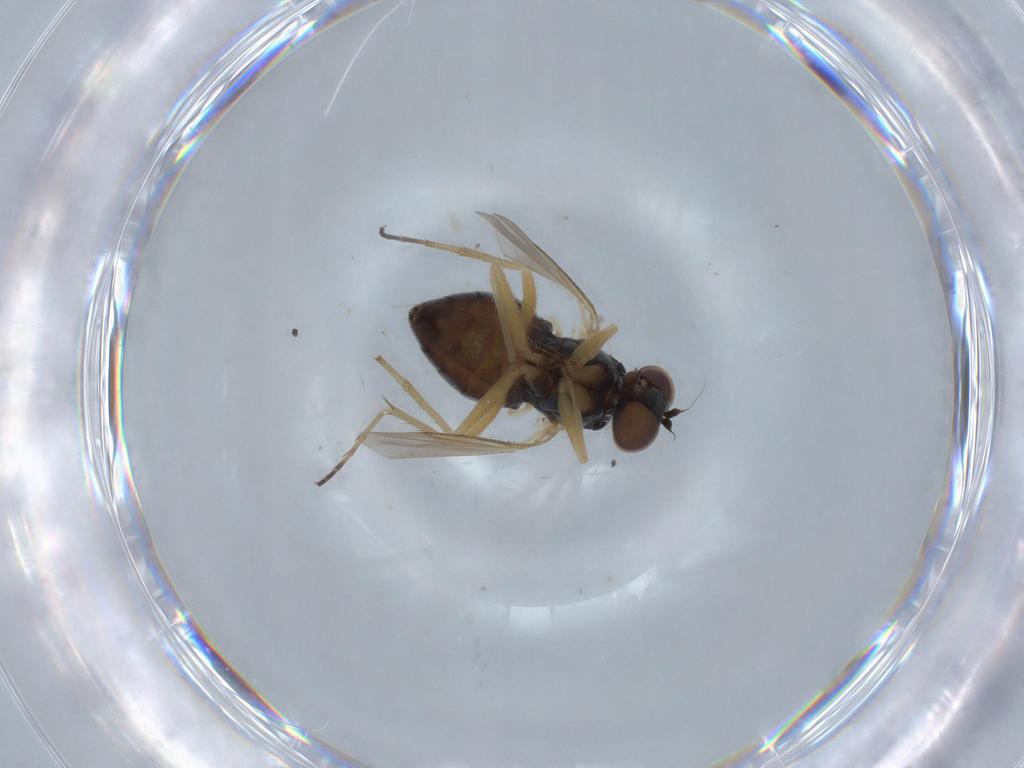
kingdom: Animalia
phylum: Arthropoda
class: Insecta
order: Diptera
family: Dolichopodidae
